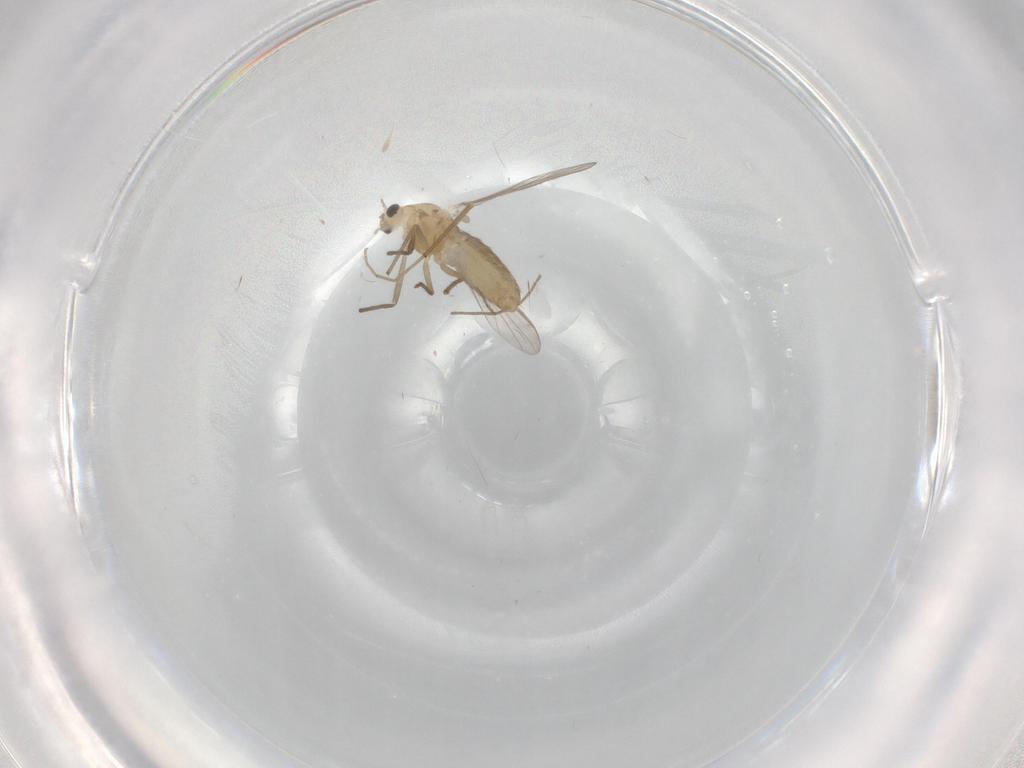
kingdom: Animalia
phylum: Arthropoda
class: Insecta
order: Diptera
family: Chironomidae
